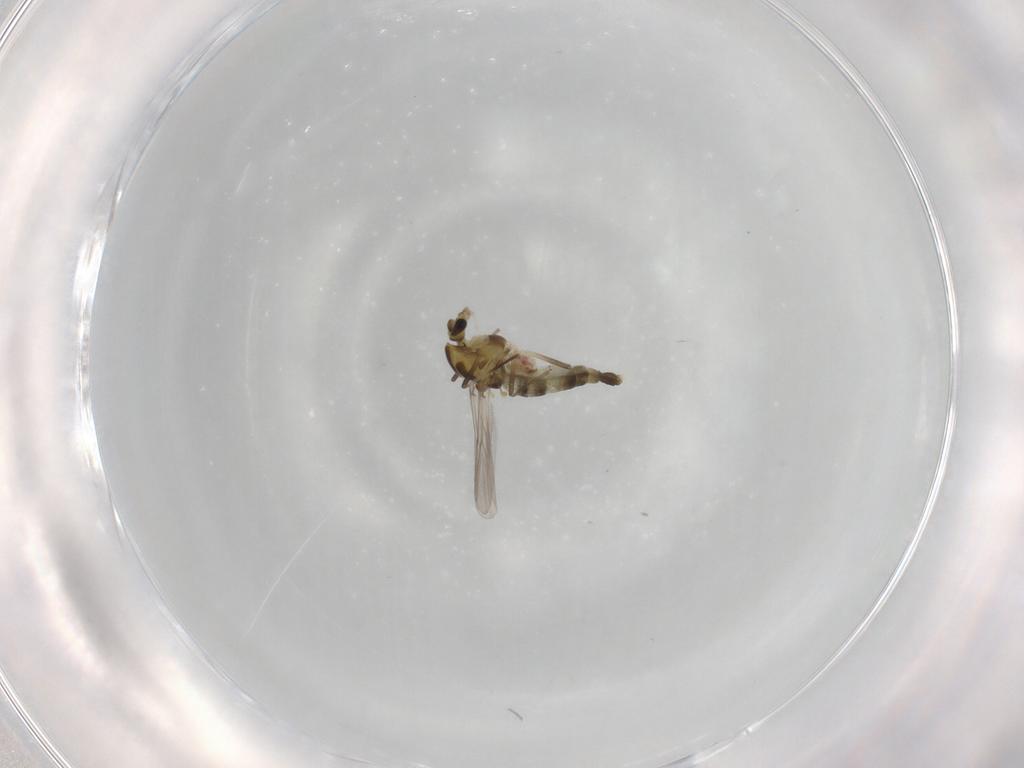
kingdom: Animalia
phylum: Arthropoda
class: Insecta
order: Diptera
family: Chironomidae
